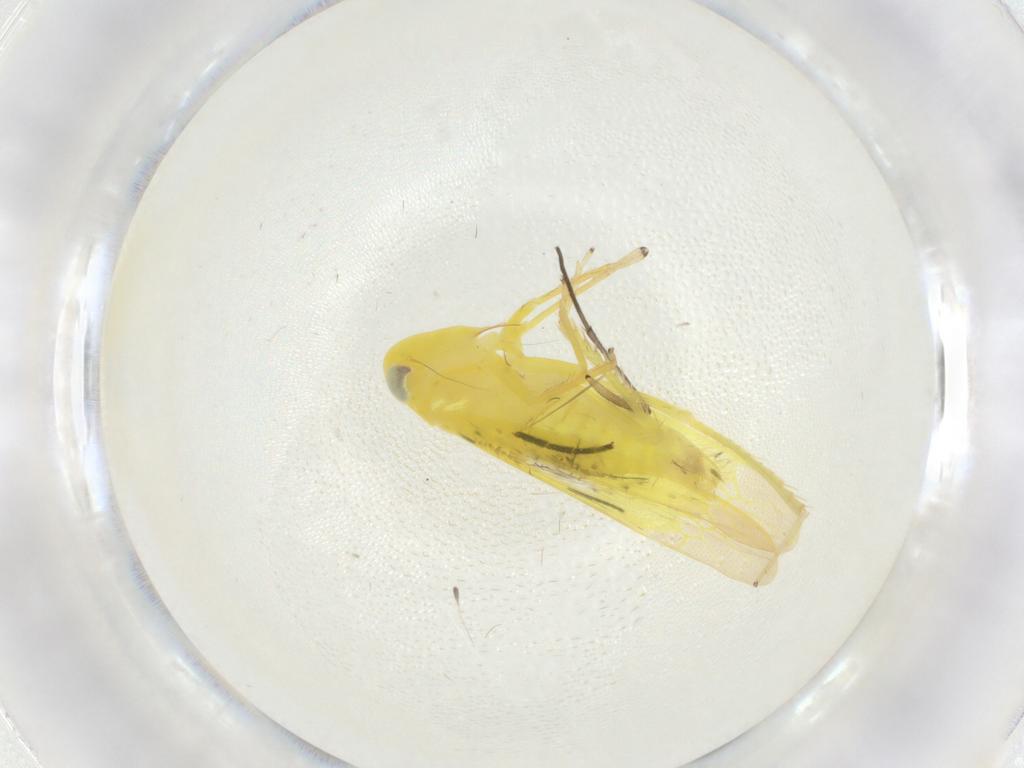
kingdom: Animalia
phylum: Arthropoda
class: Insecta
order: Hemiptera
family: Cicadellidae
